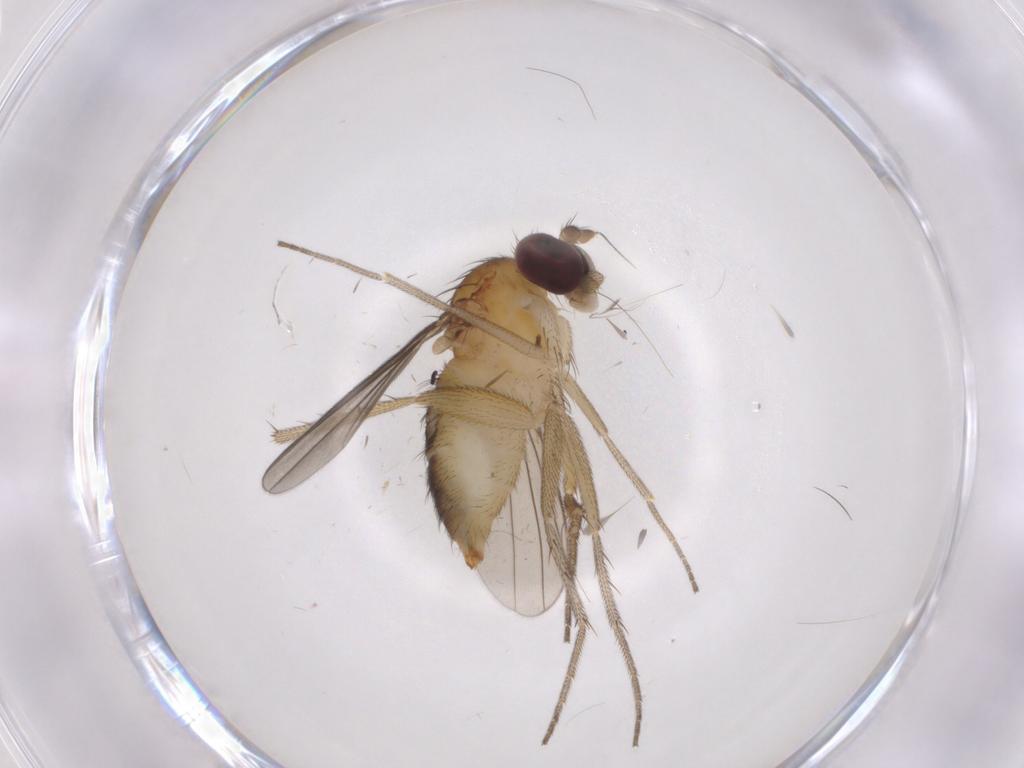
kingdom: Animalia
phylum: Arthropoda
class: Insecta
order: Diptera
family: Dolichopodidae
